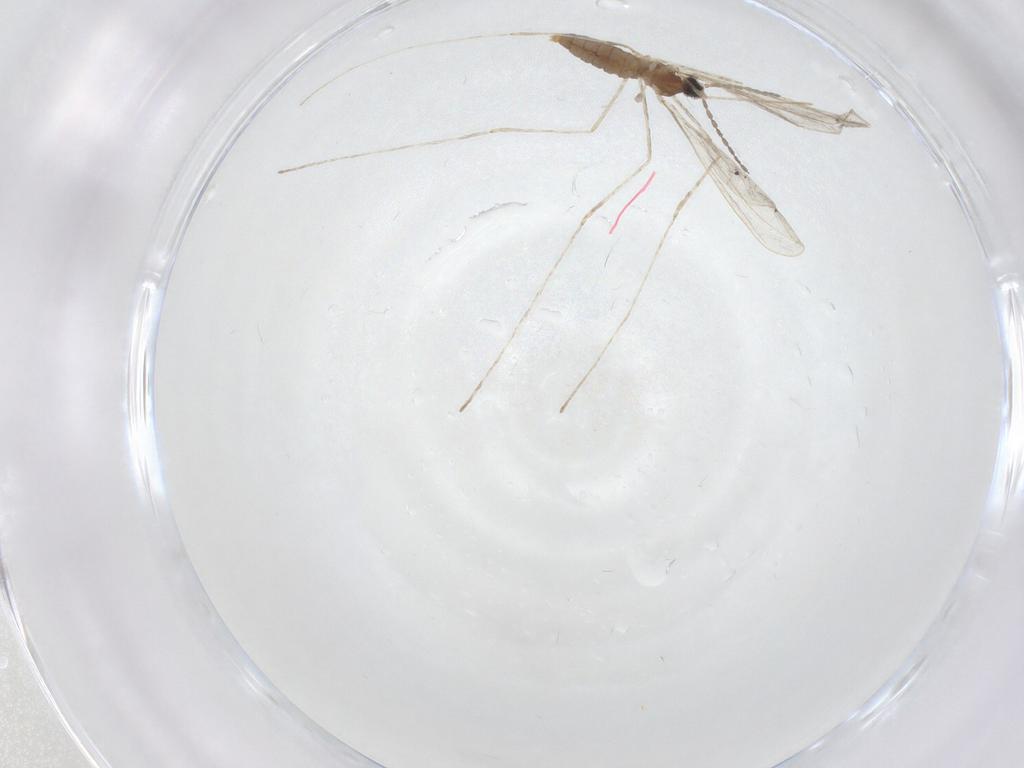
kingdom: Animalia
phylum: Arthropoda
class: Insecta
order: Diptera
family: Cecidomyiidae
